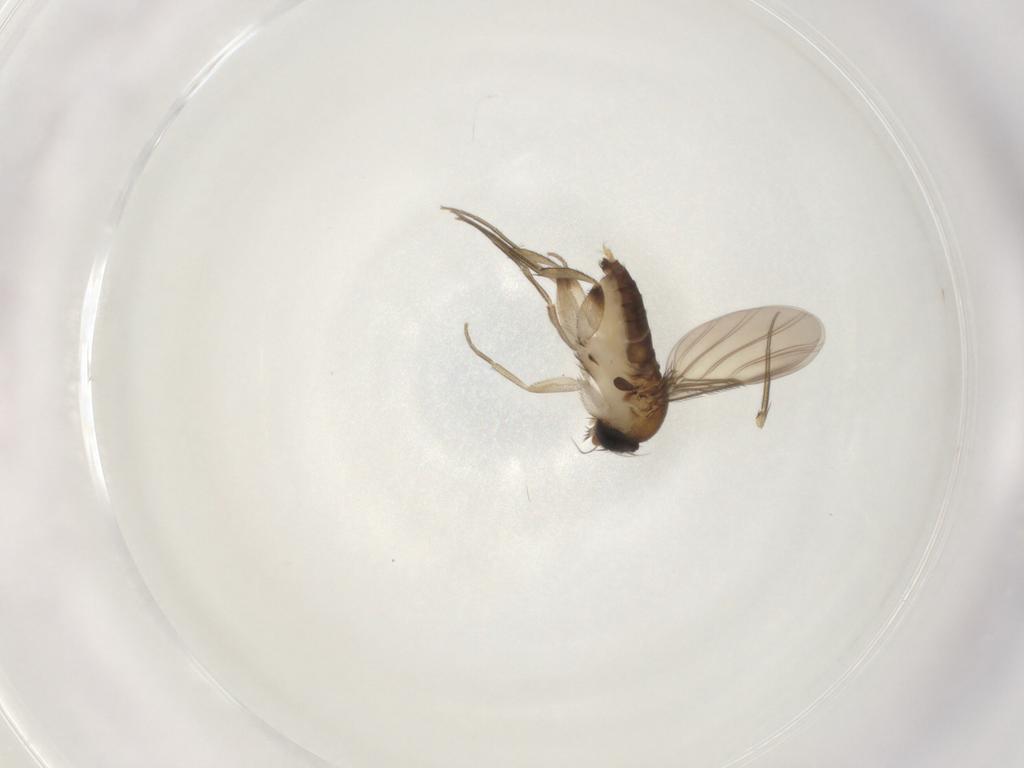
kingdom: Animalia
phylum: Arthropoda
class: Insecta
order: Diptera
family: Phoridae
